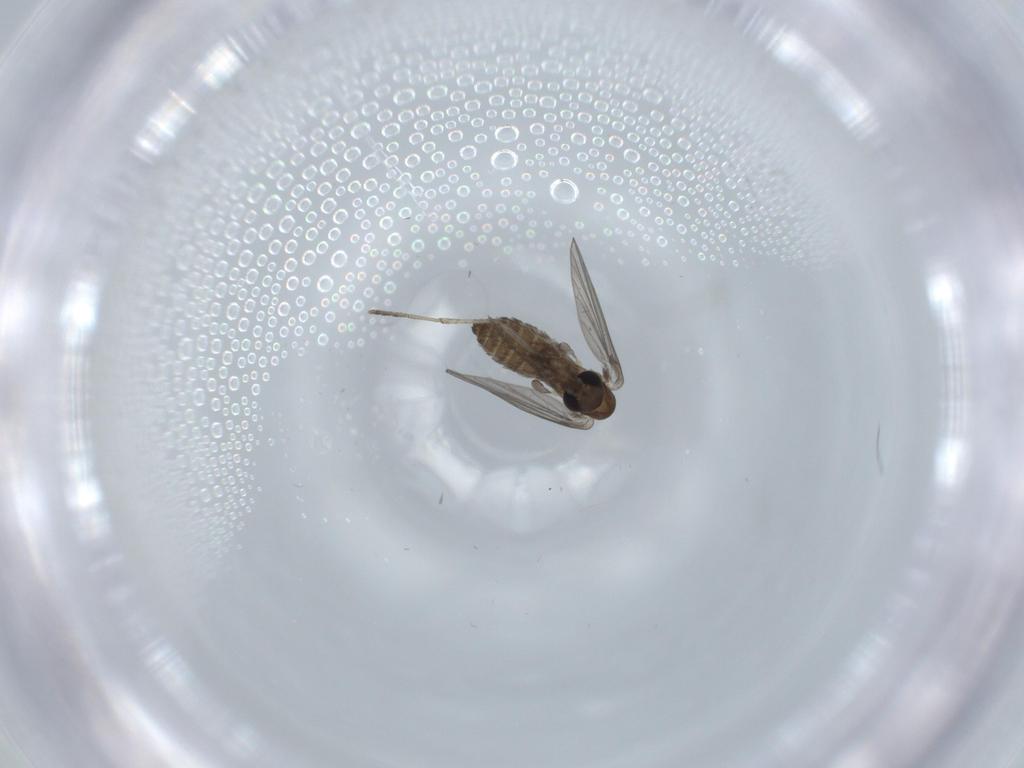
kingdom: Animalia
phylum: Arthropoda
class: Insecta
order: Diptera
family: Psychodidae
